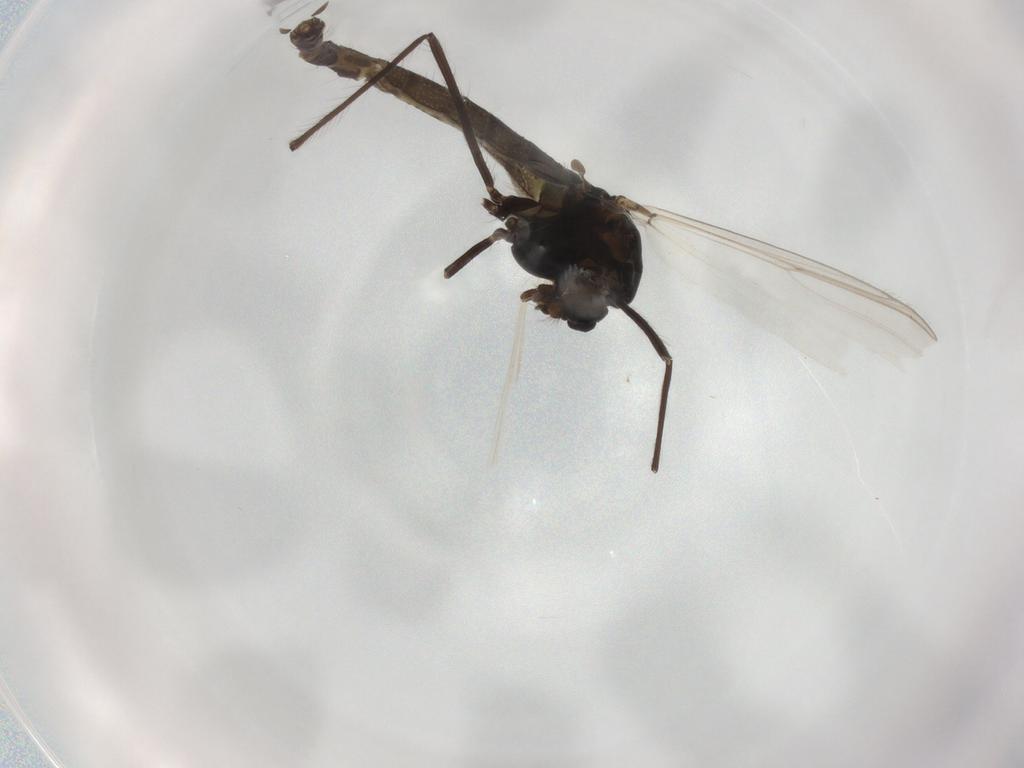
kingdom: Animalia
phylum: Arthropoda
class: Insecta
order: Diptera
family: Chironomidae
